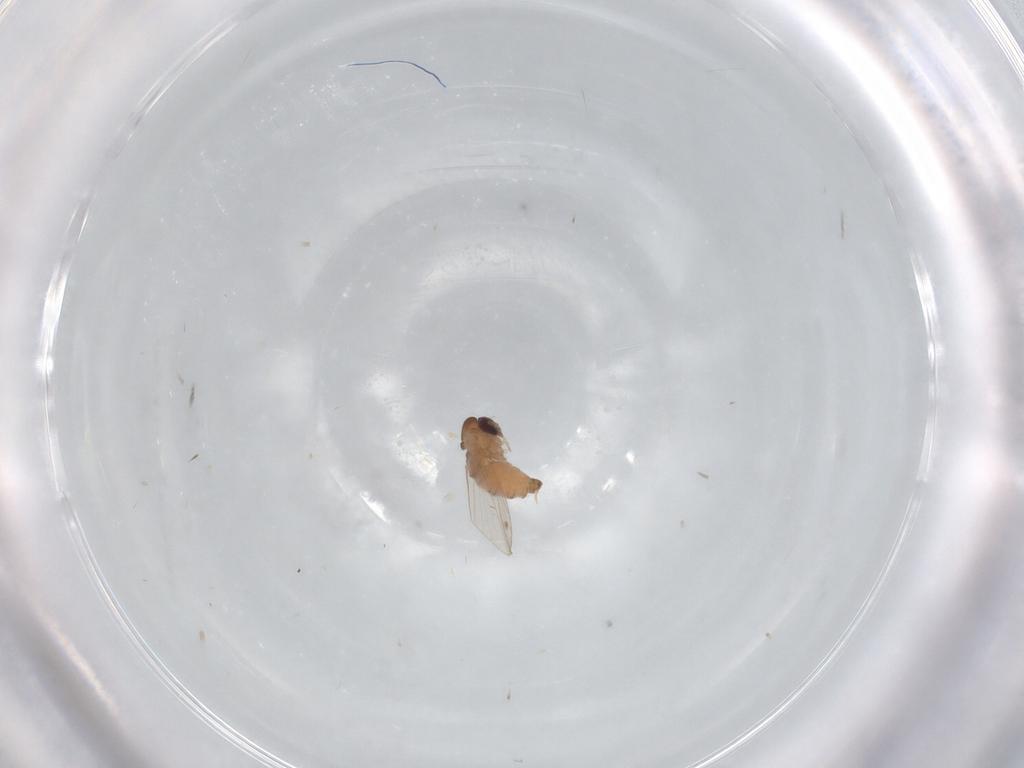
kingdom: Animalia
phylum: Arthropoda
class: Insecta
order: Diptera
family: Psychodidae
